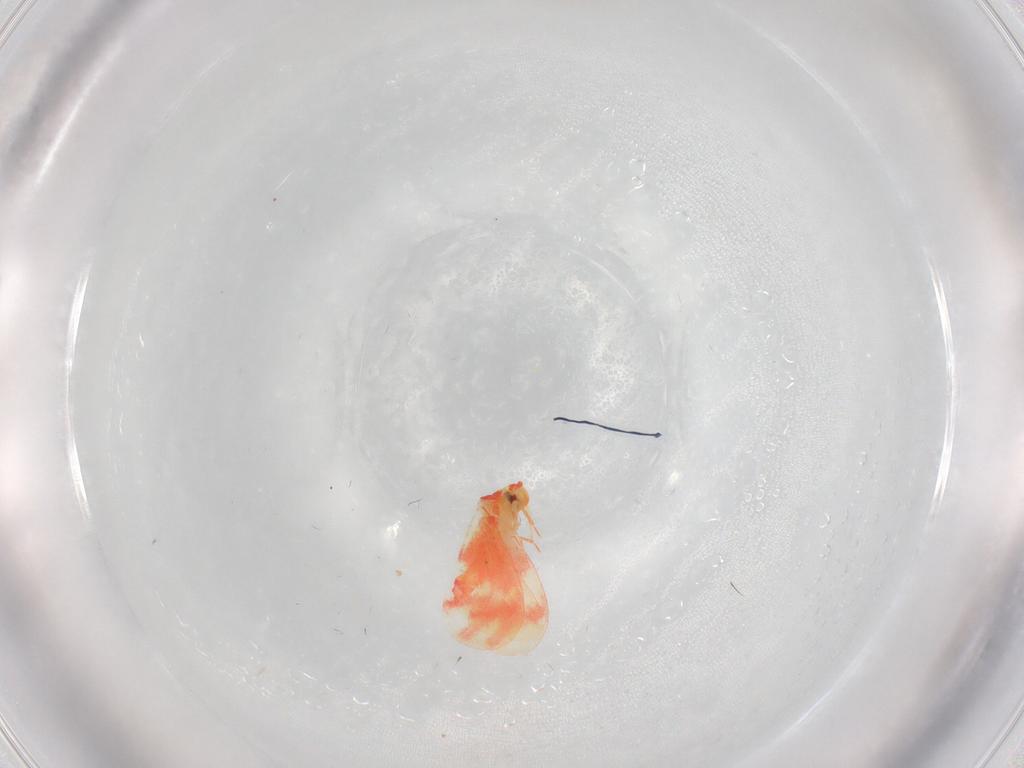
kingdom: Animalia
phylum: Arthropoda
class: Insecta
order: Hemiptera
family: Aleyrodidae
